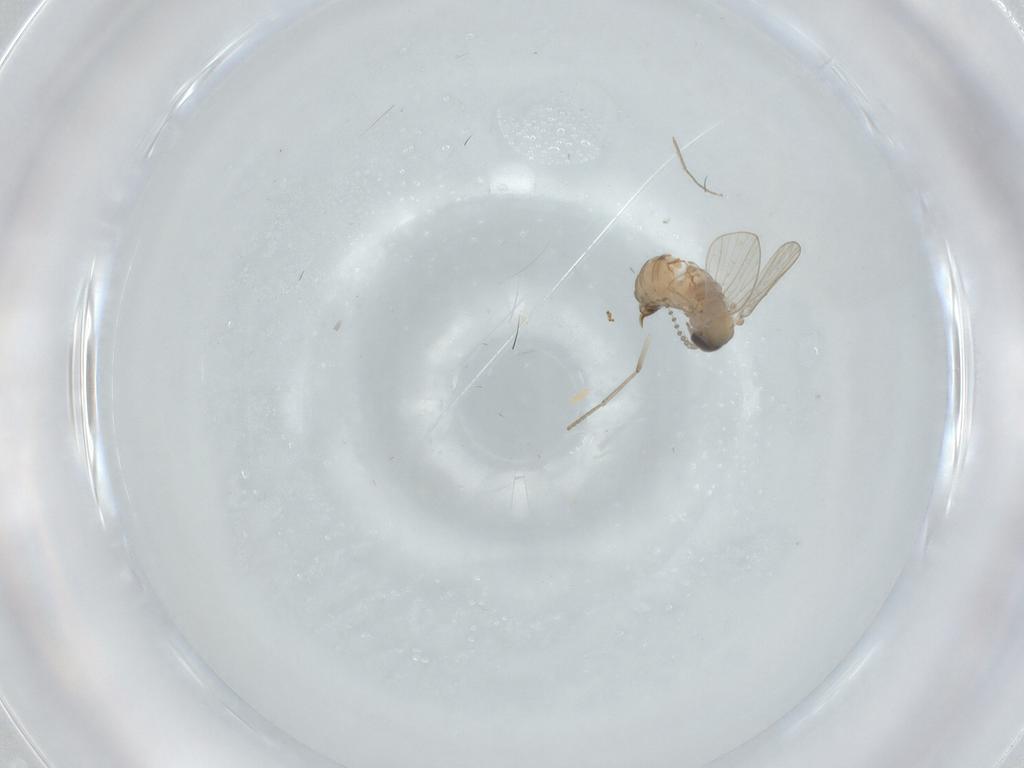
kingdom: Animalia
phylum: Arthropoda
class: Insecta
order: Diptera
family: Psychodidae
